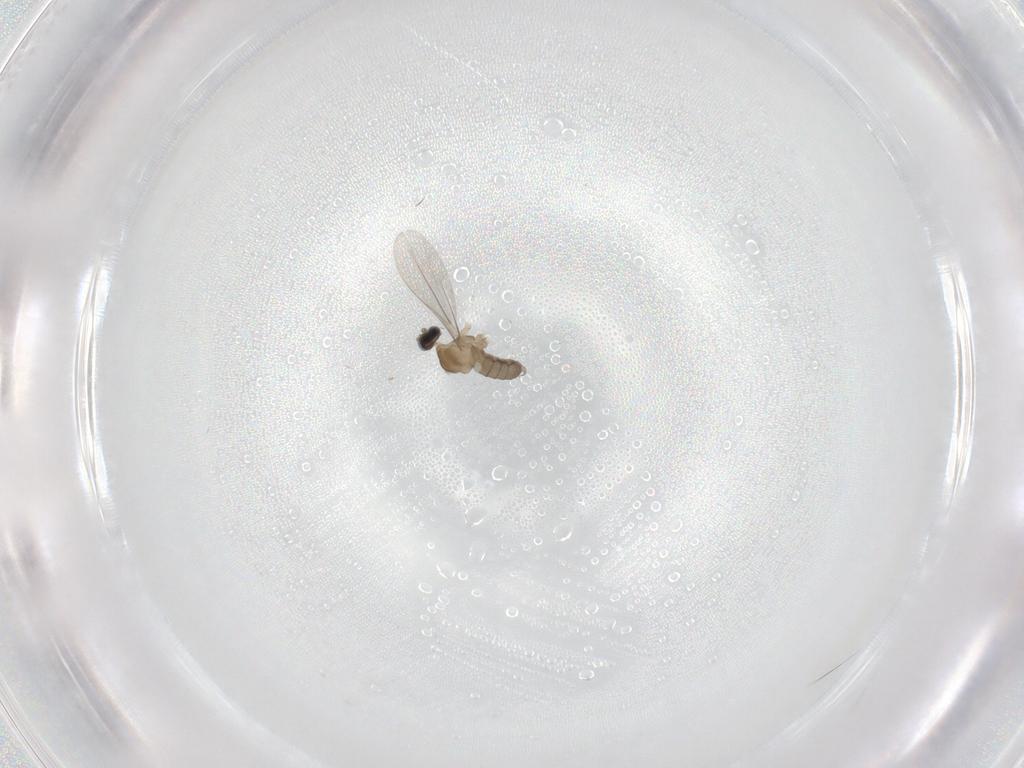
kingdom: Animalia
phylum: Arthropoda
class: Insecta
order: Diptera
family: Cecidomyiidae
